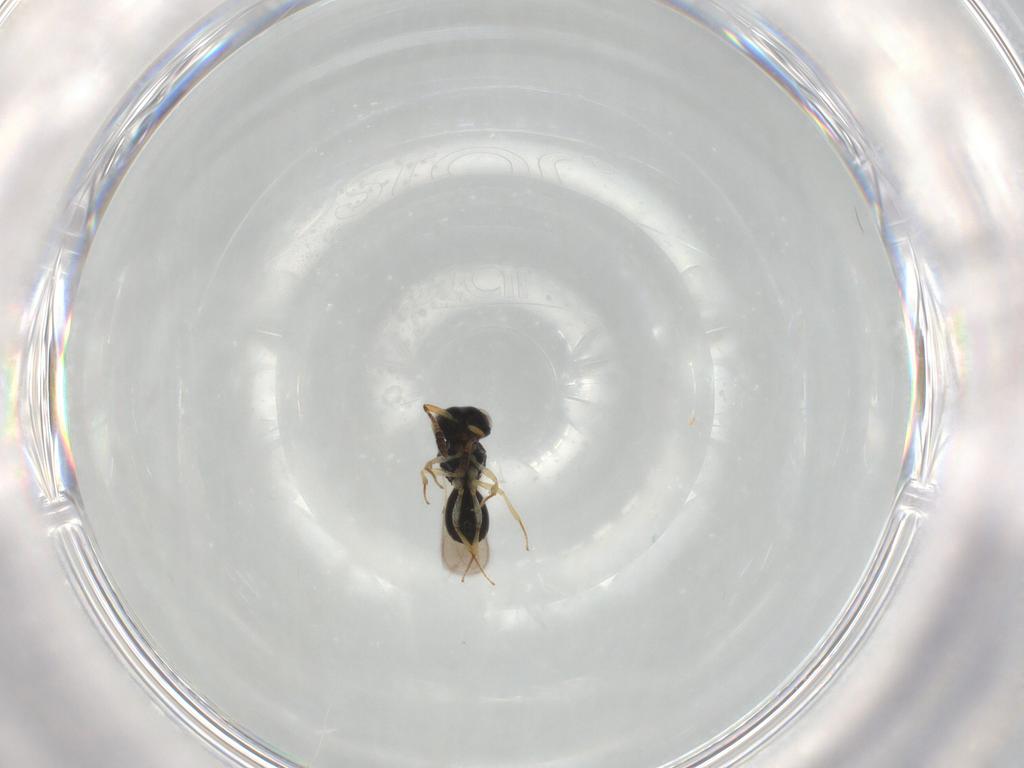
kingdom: Animalia
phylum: Arthropoda
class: Insecta
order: Hymenoptera
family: Scelionidae
